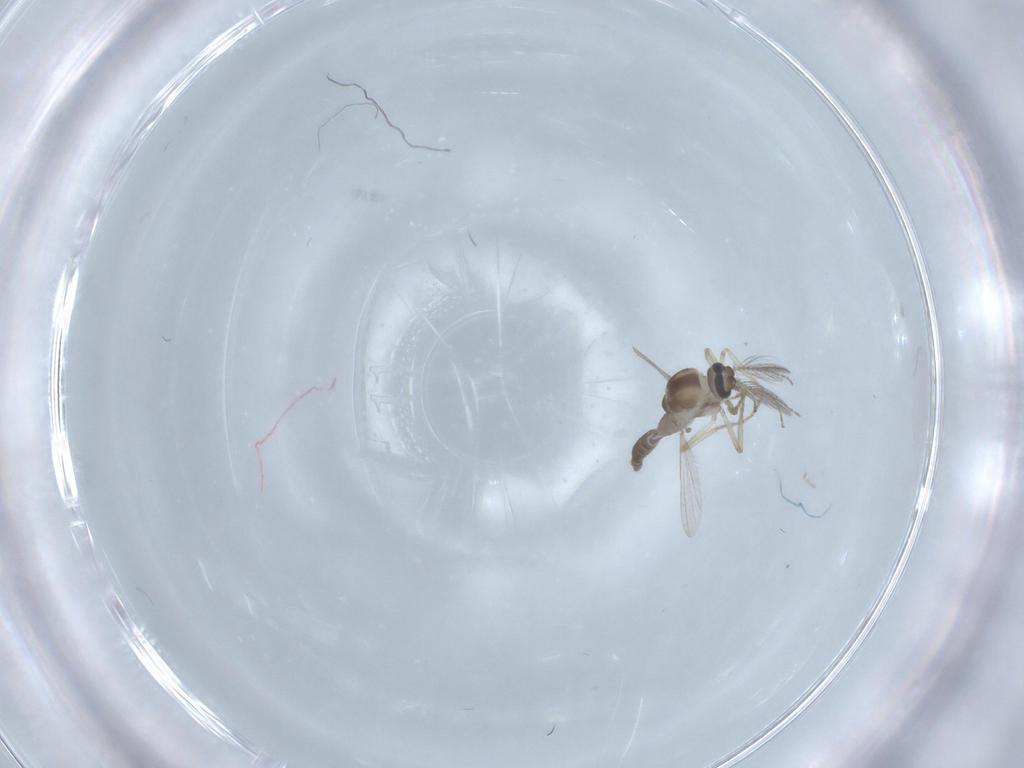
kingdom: Animalia
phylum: Arthropoda
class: Insecta
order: Diptera
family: Ceratopogonidae
